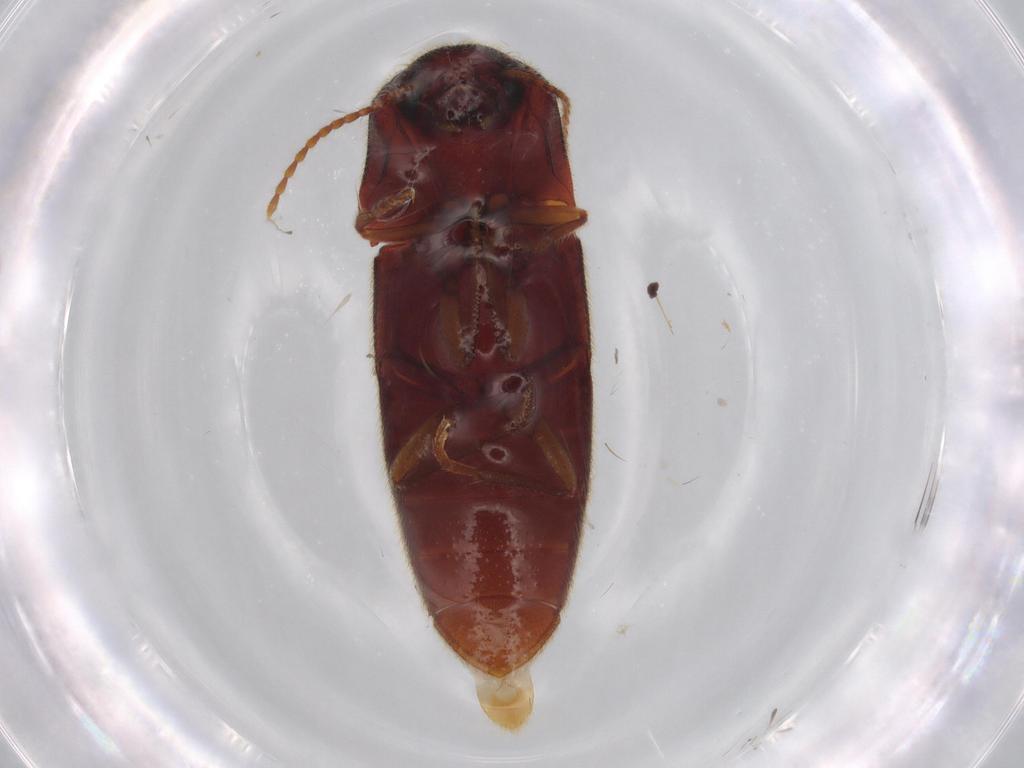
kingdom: Animalia
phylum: Arthropoda
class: Insecta
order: Coleoptera
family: Elateridae
